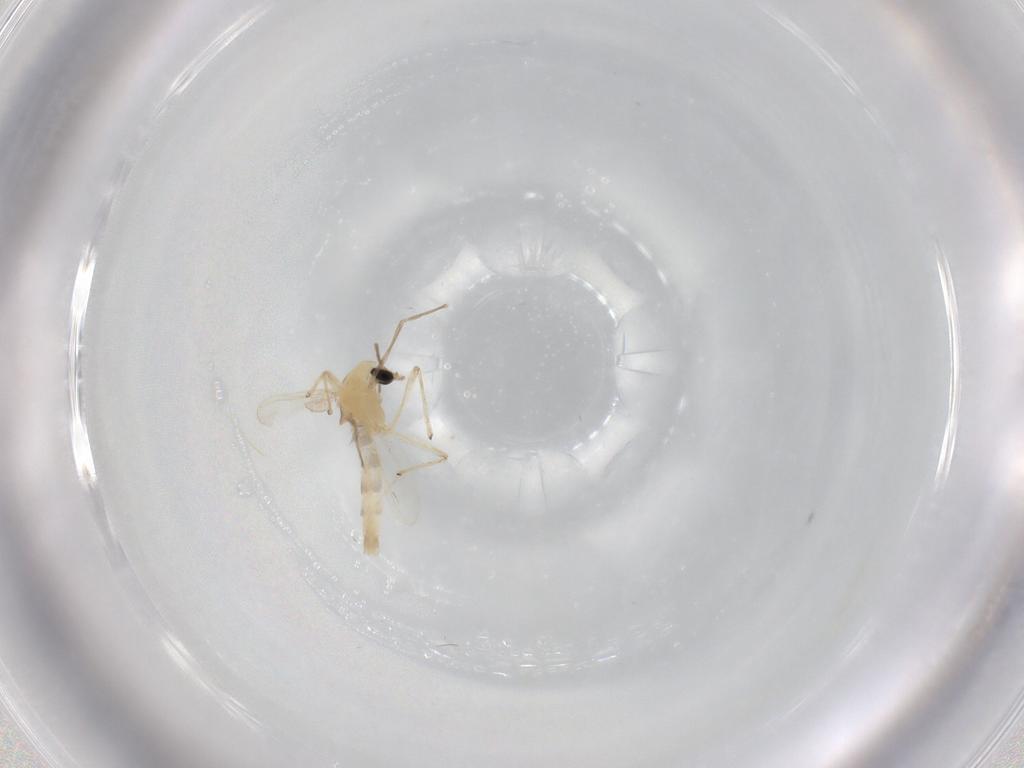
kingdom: Animalia
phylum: Arthropoda
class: Insecta
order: Diptera
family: Chironomidae
